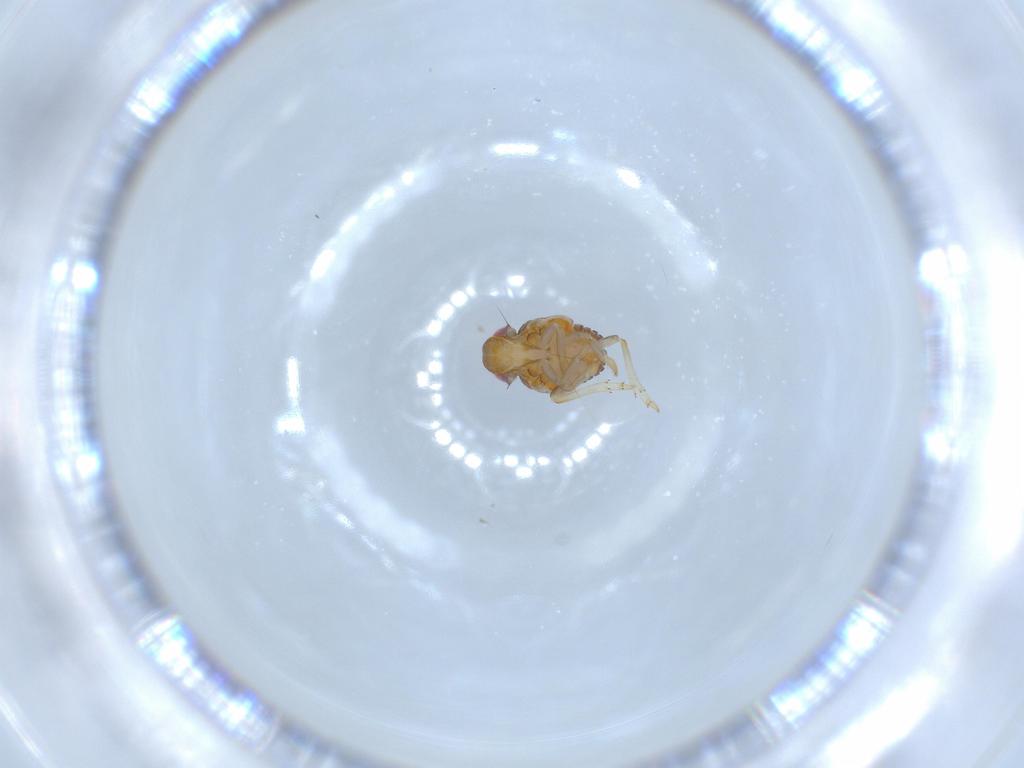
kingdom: Animalia
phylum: Arthropoda
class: Insecta
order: Hemiptera
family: Issidae
